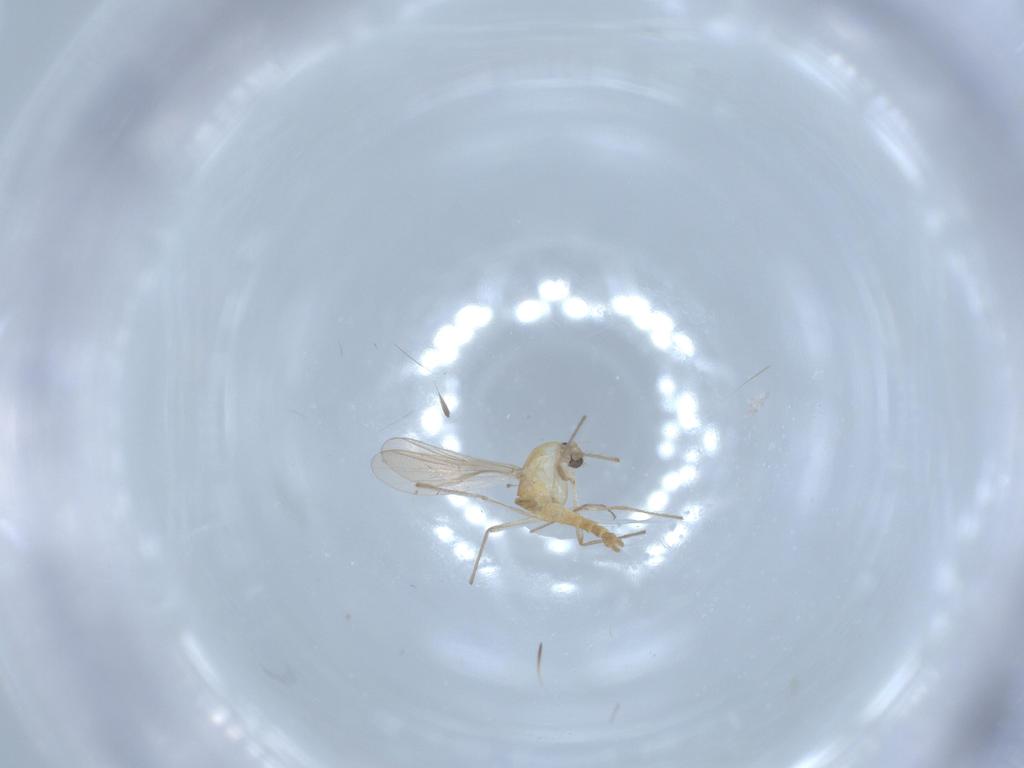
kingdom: Animalia
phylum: Arthropoda
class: Insecta
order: Diptera
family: Chironomidae
